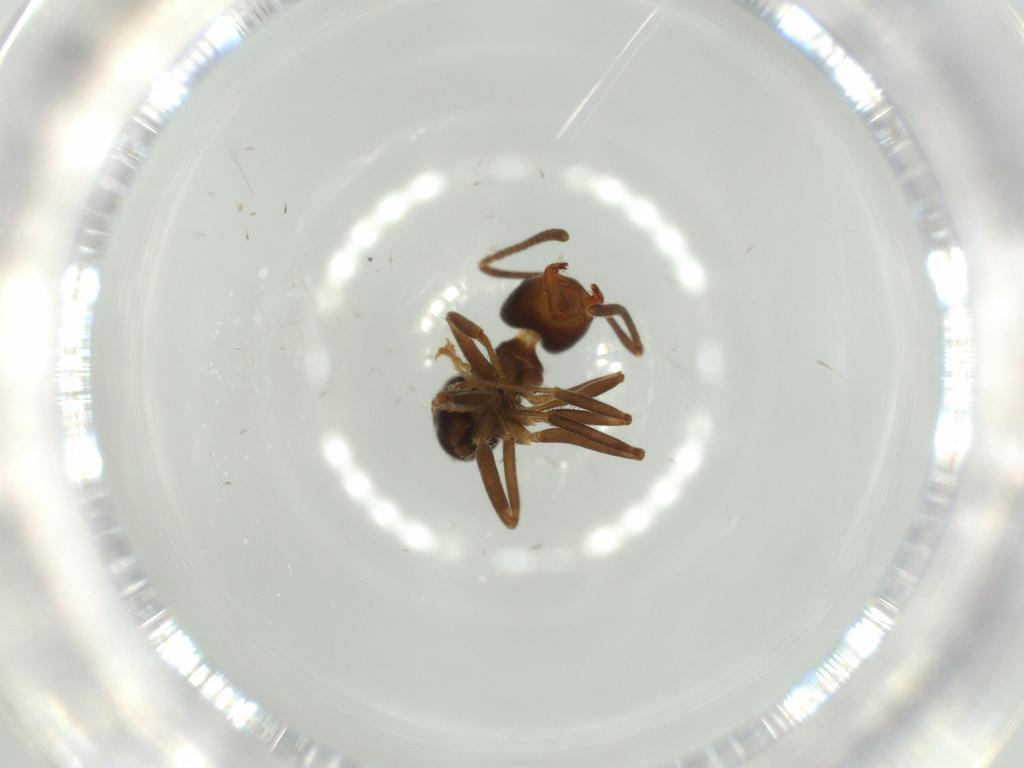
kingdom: Animalia
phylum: Arthropoda
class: Insecta
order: Hymenoptera
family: Formicidae
